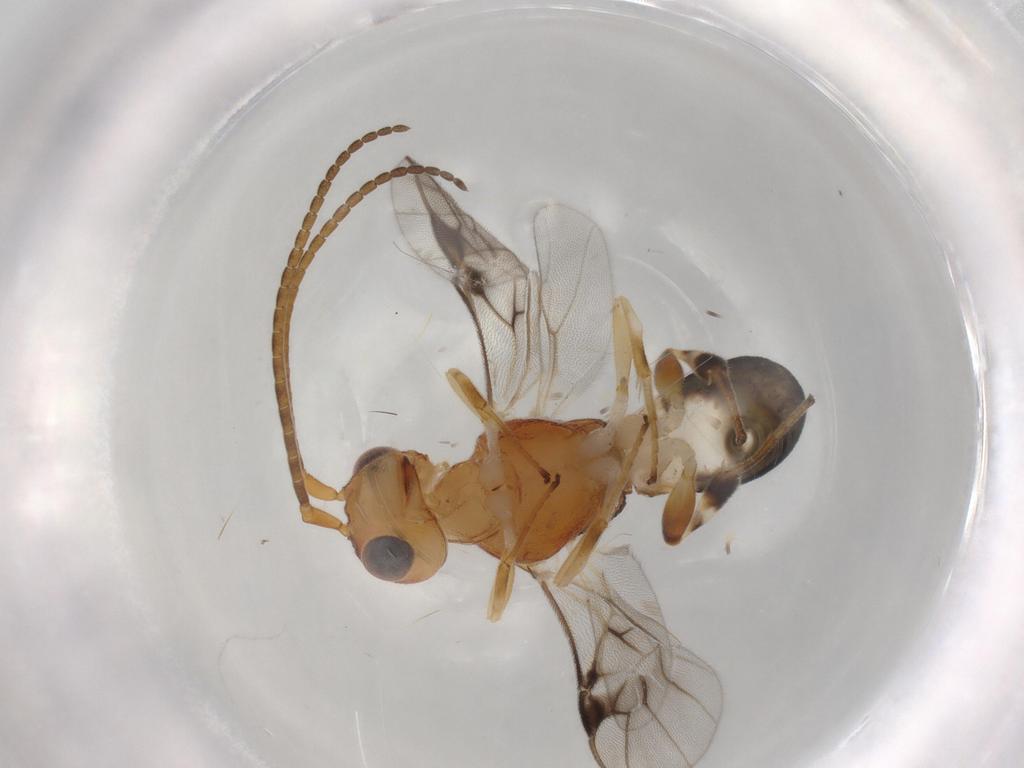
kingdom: Animalia
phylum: Arthropoda
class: Insecta
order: Hymenoptera
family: Braconidae
